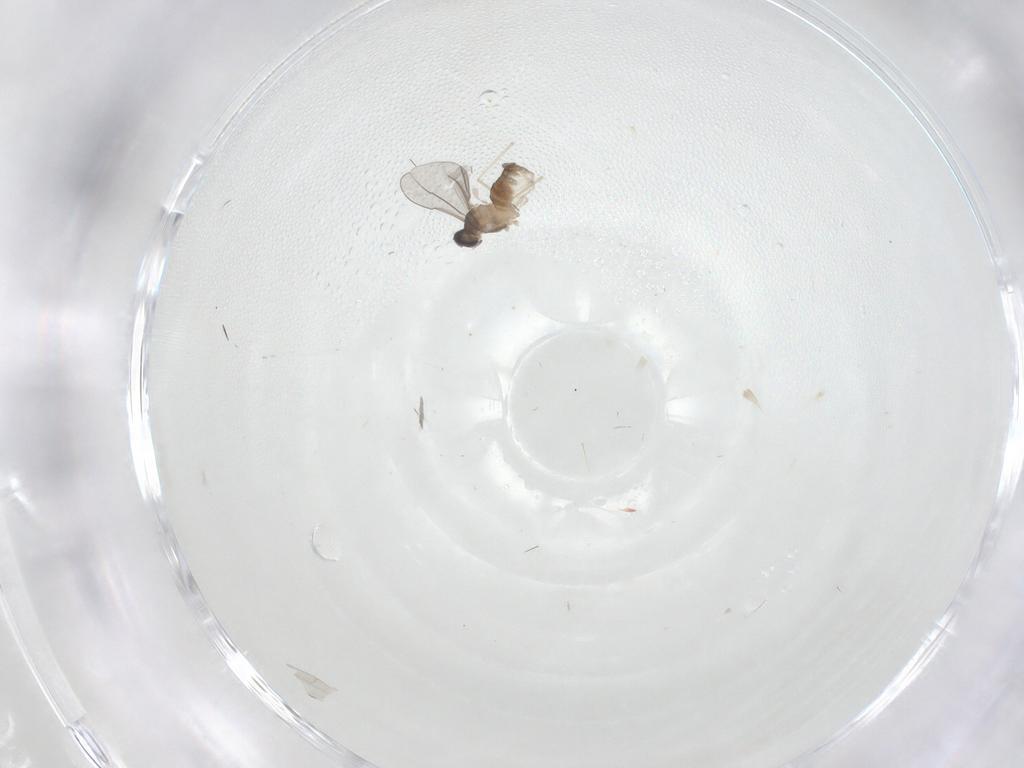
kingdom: Animalia
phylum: Arthropoda
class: Insecta
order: Diptera
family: Cecidomyiidae
